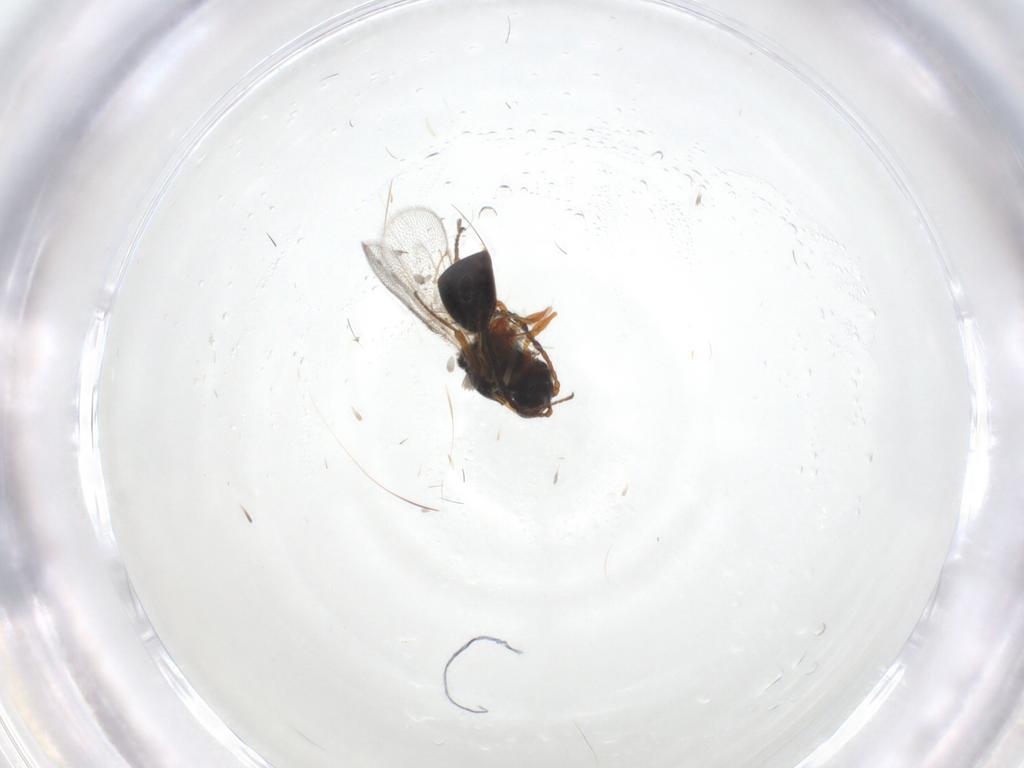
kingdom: Animalia
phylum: Arthropoda
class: Insecta
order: Hymenoptera
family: Figitidae
